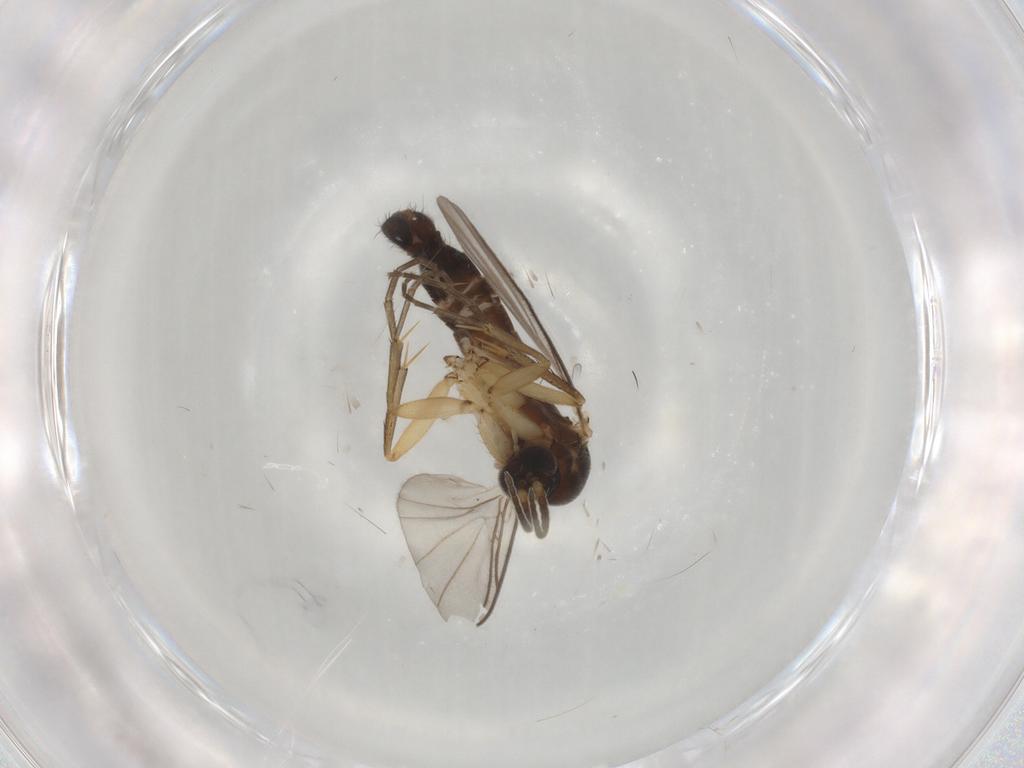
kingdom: Animalia
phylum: Arthropoda
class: Insecta
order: Diptera
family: Mycetophilidae
